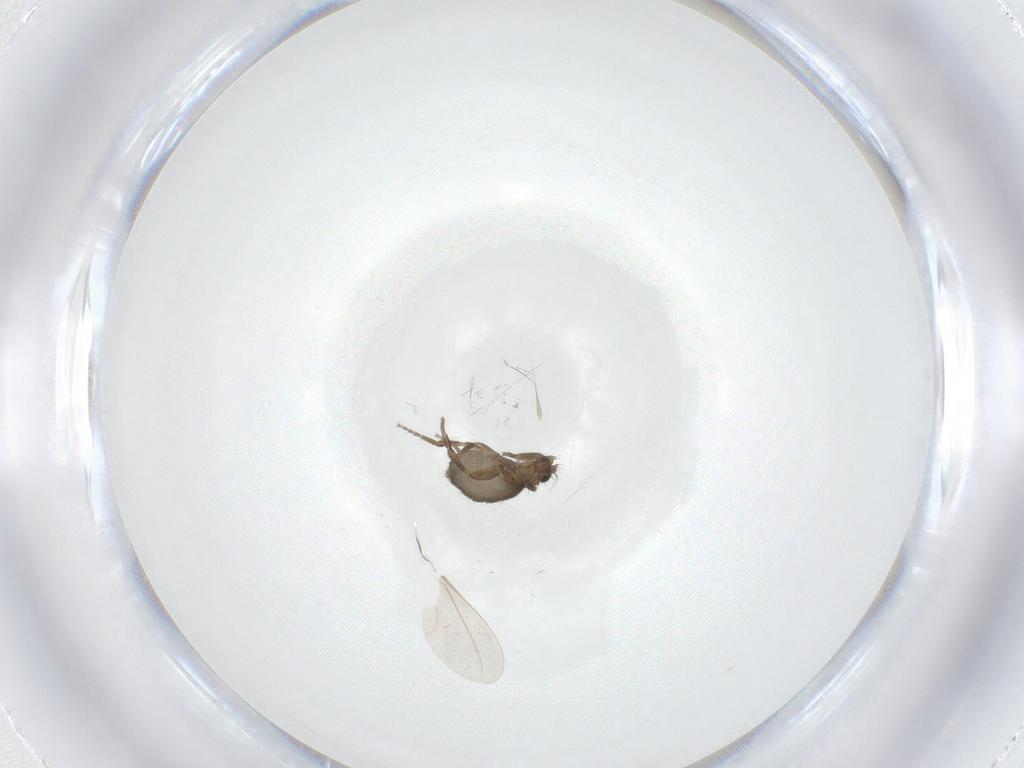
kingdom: Animalia
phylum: Arthropoda
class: Insecta
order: Diptera
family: Phoridae
